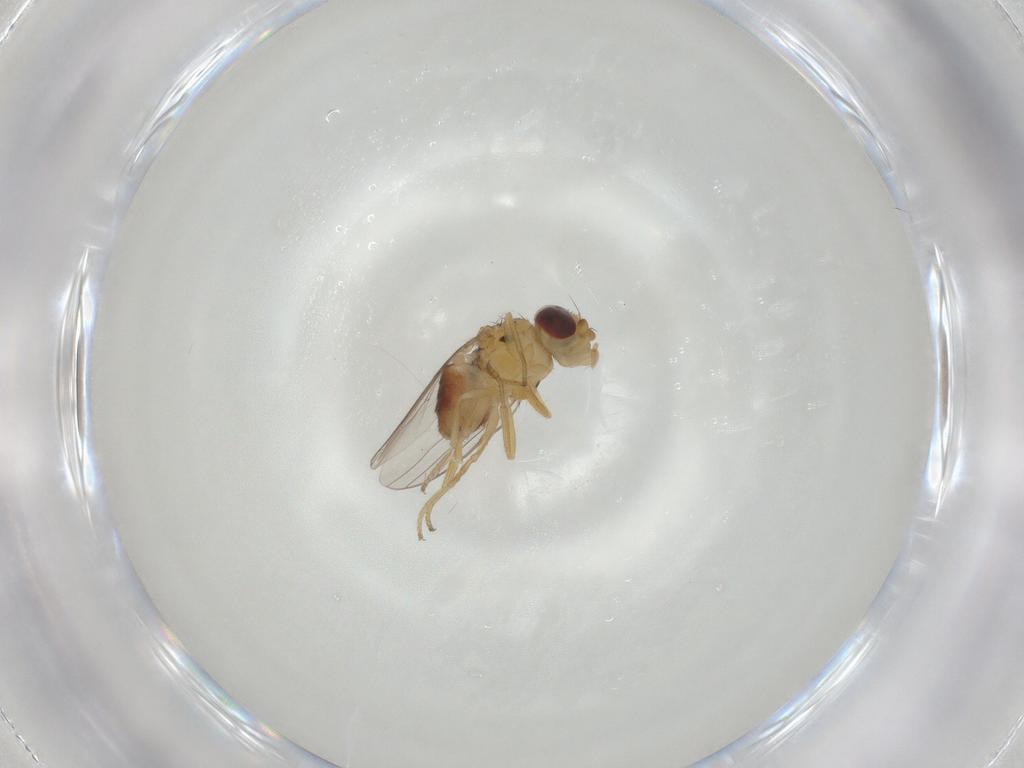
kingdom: Animalia
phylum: Arthropoda
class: Insecta
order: Diptera
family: Chloropidae
